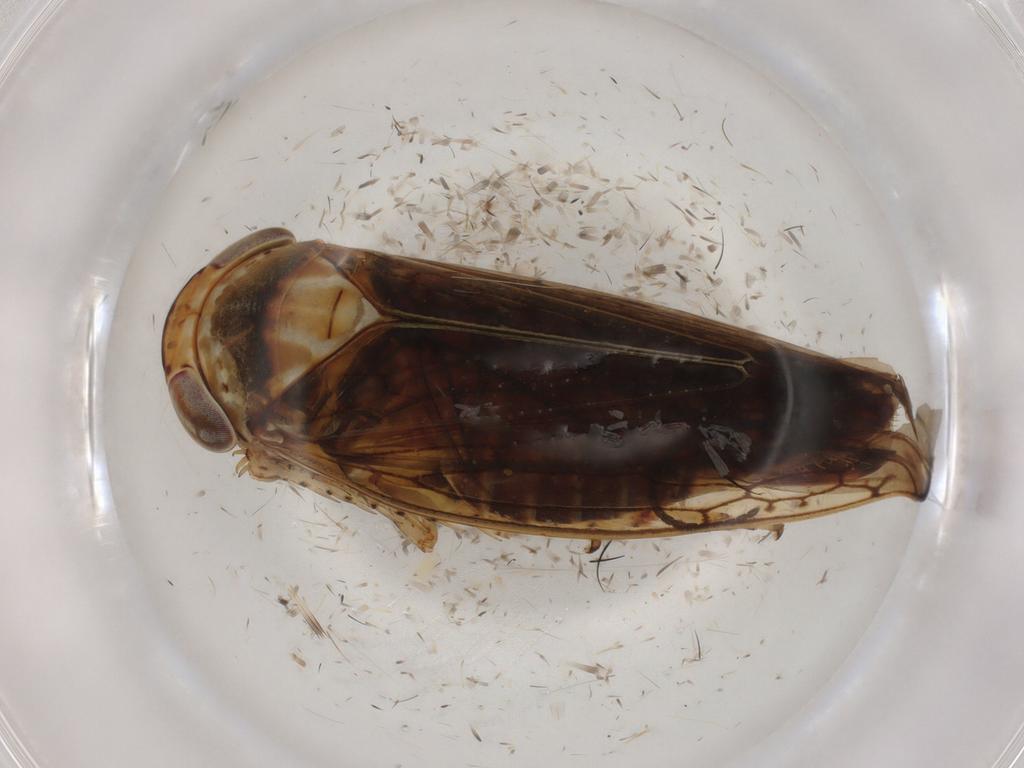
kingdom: Animalia
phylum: Arthropoda
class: Insecta
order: Hemiptera
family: Cicadellidae
